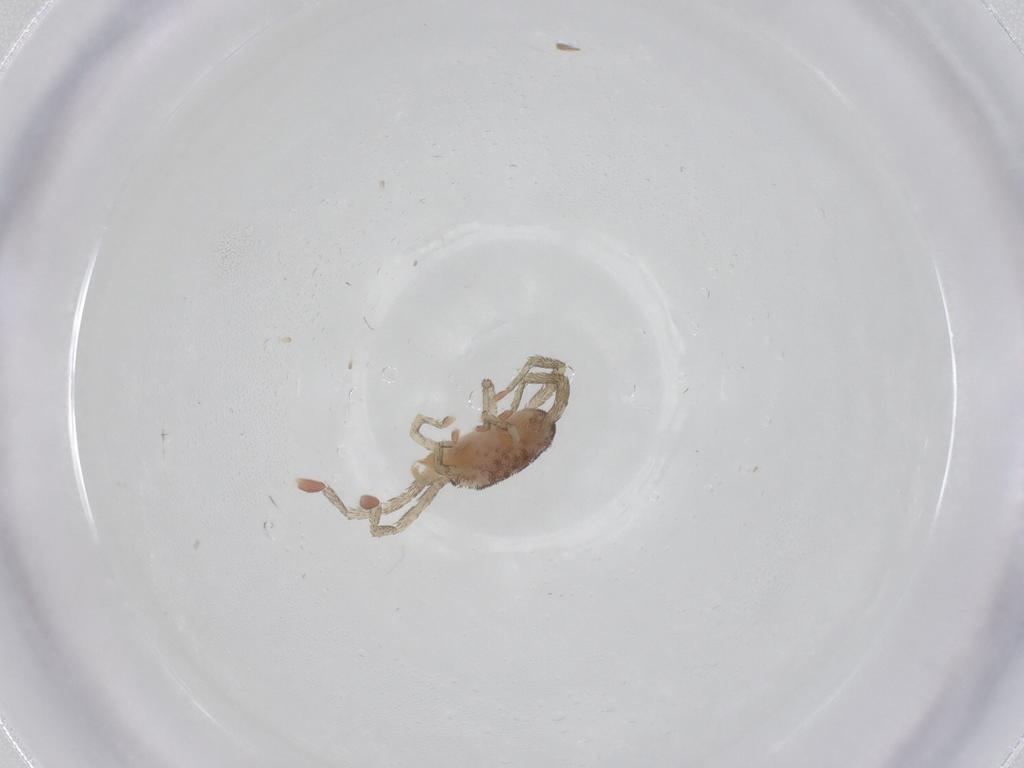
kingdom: Animalia
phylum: Arthropoda
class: Arachnida
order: Trombidiformes
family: Erythraeidae
